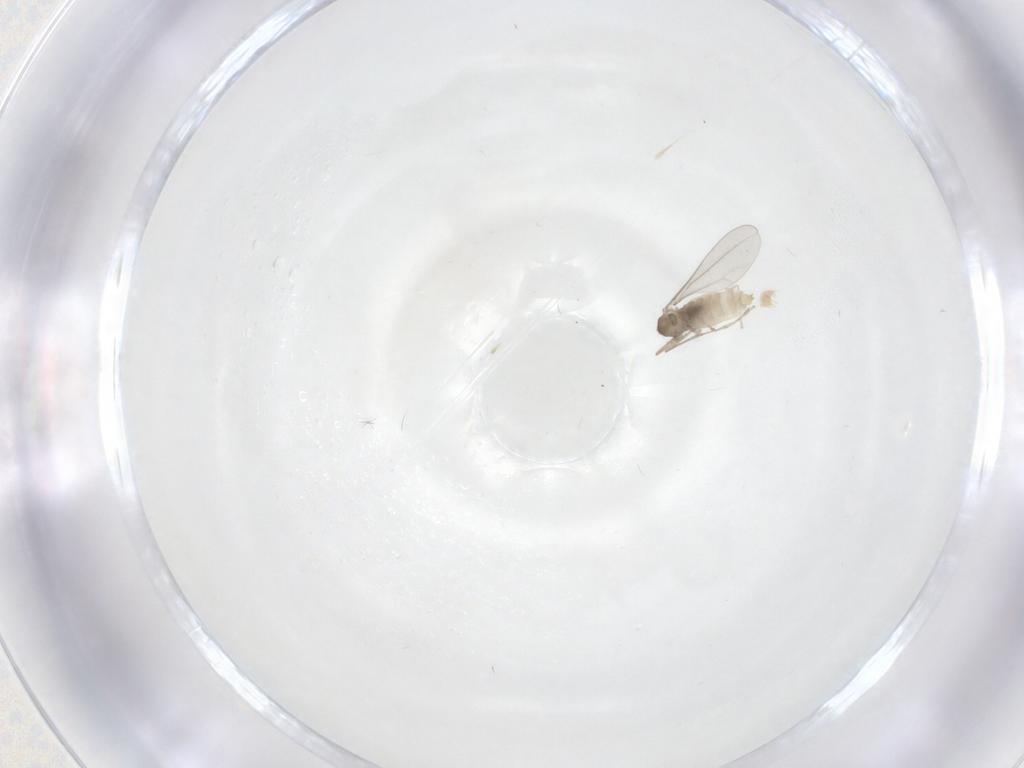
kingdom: Animalia
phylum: Arthropoda
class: Insecta
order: Diptera
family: Cecidomyiidae
